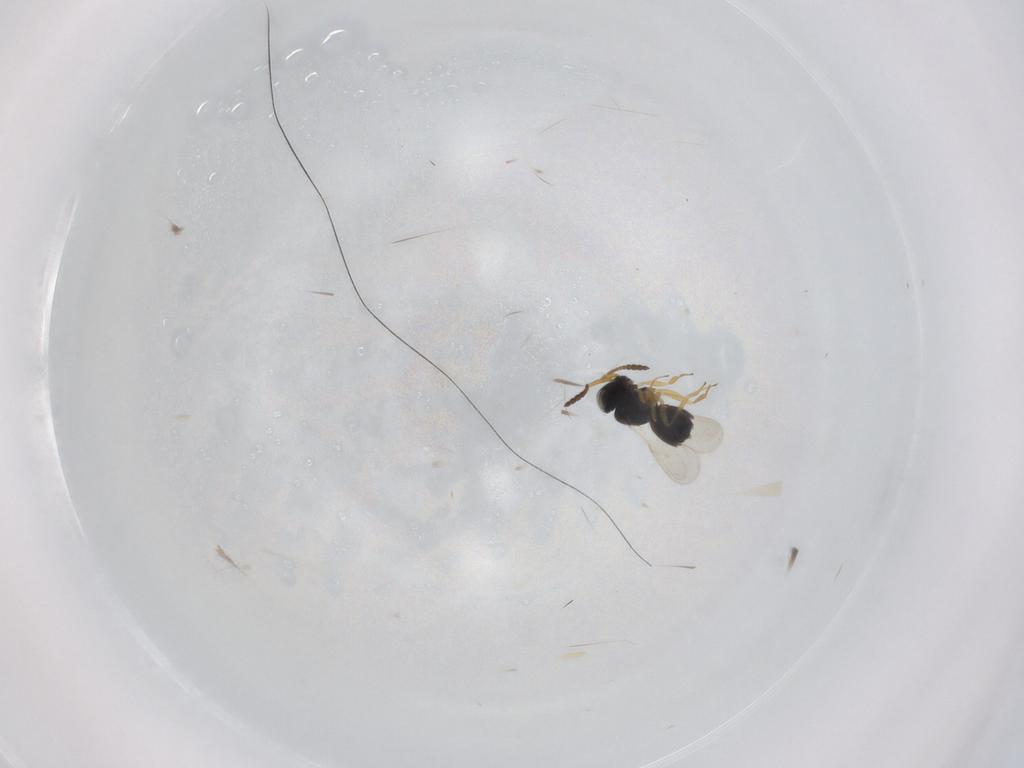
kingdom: Animalia
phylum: Arthropoda
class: Insecta
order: Hymenoptera
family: Scelionidae
